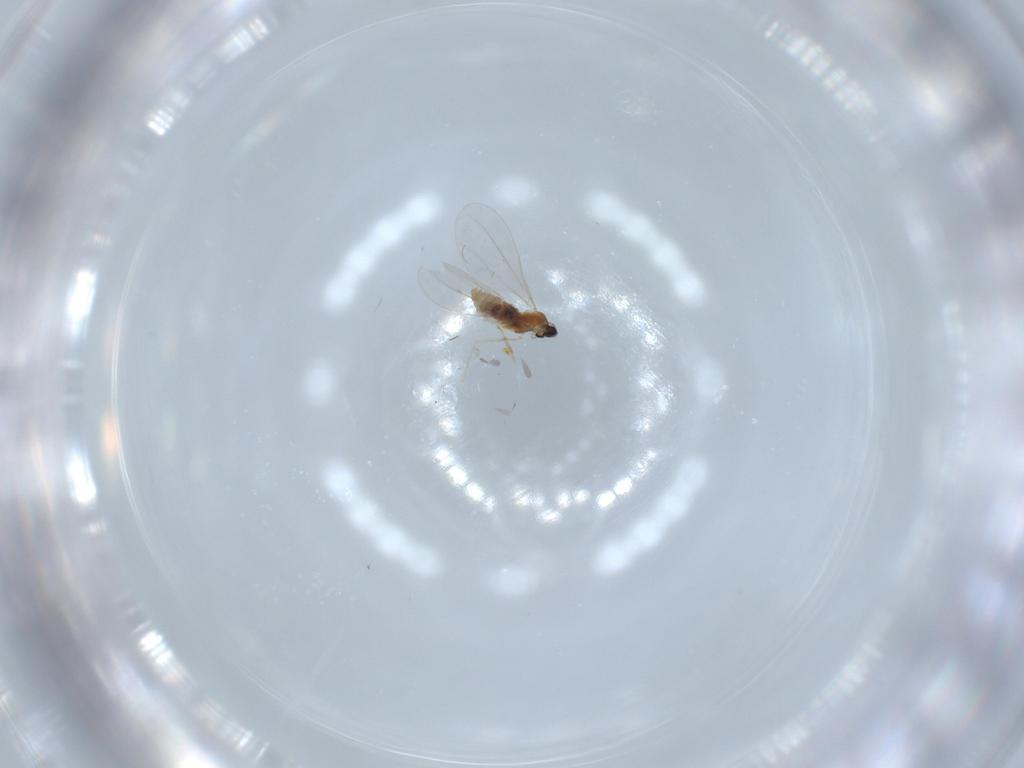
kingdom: Animalia
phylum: Arthropoda
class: Insecta
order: Diptera
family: Cecidomyiidae
